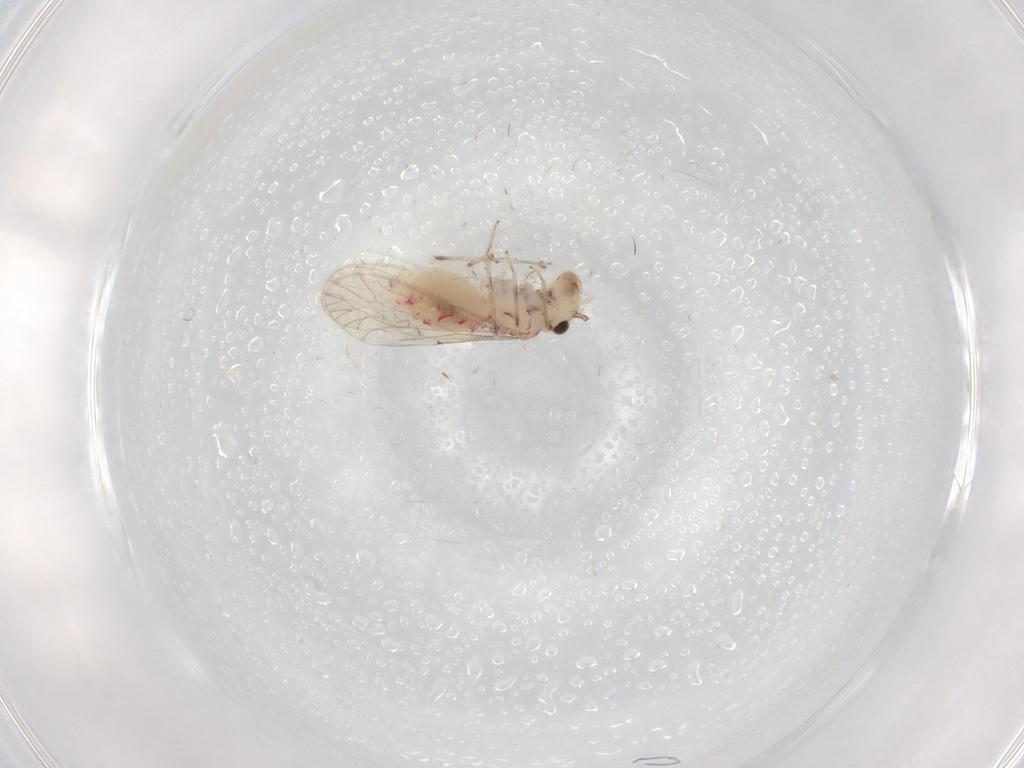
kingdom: Animalia
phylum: Arthropoda
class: Insecta
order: Psocodea
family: Caeciliusidae
